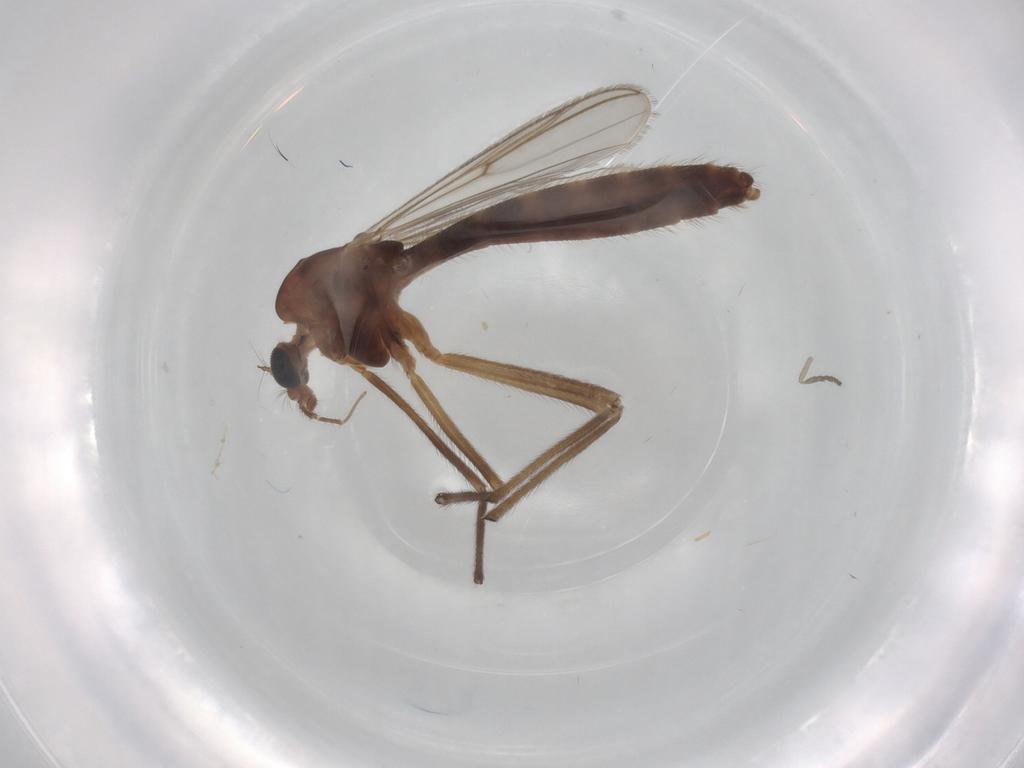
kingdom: Animalia
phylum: Arthropoda
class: Insecta
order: Diptera
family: Chironomidae
